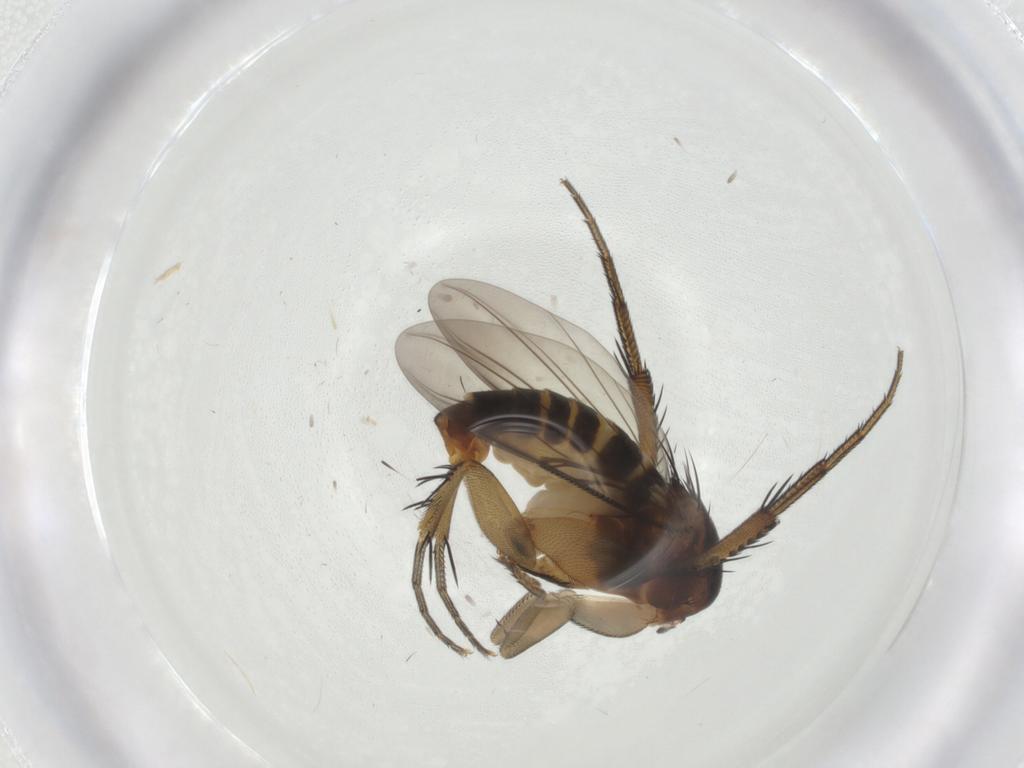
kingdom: Animalia
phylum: Arthropoda
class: Insecta
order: Diptera
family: Phoridae
